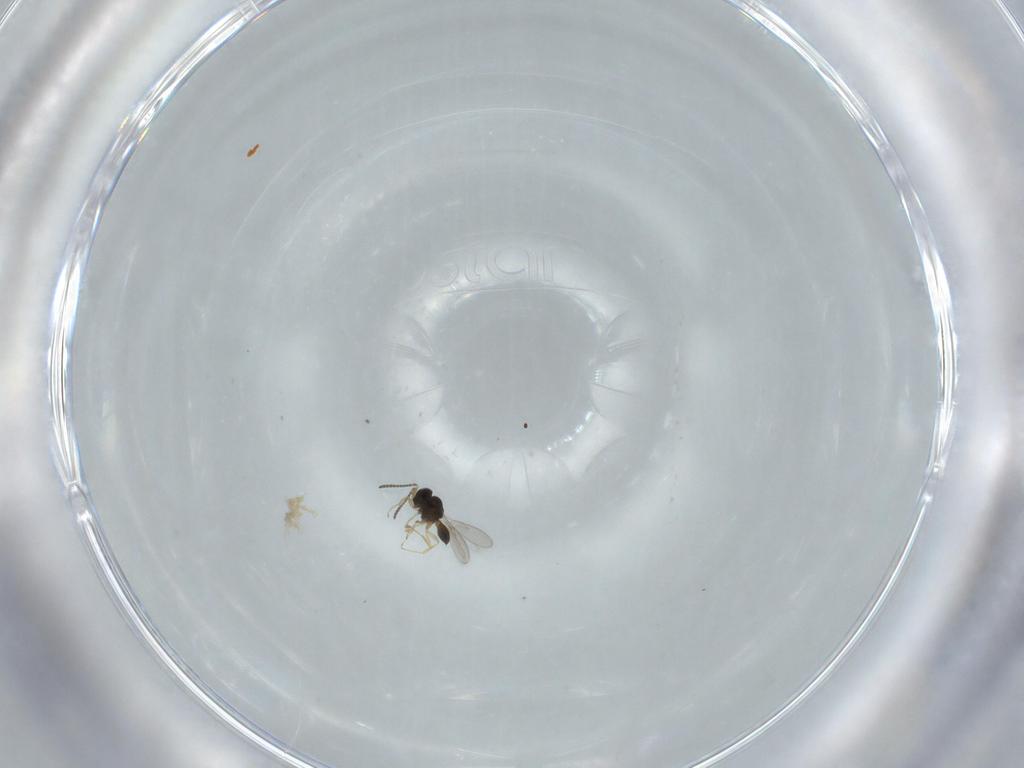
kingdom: Animalia
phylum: Arthropoda
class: Insecta
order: Hymenoptera
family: Scelionidae
